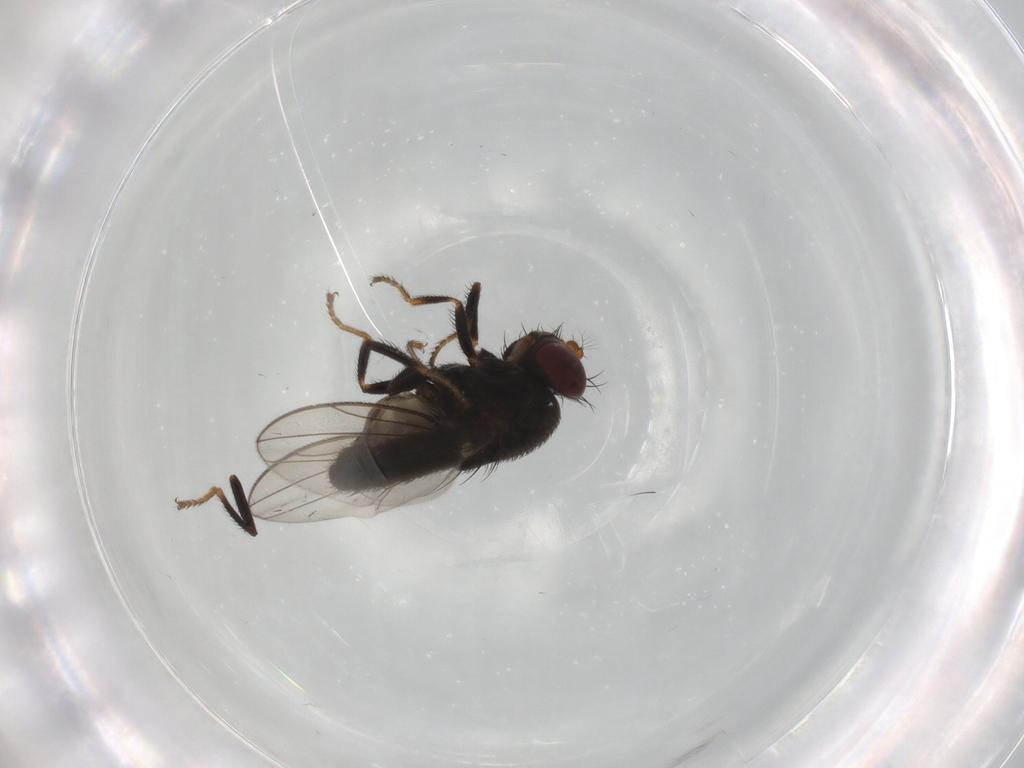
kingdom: Animalia
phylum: Arthropoda
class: Insecta
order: Diptera
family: Ephydridae
